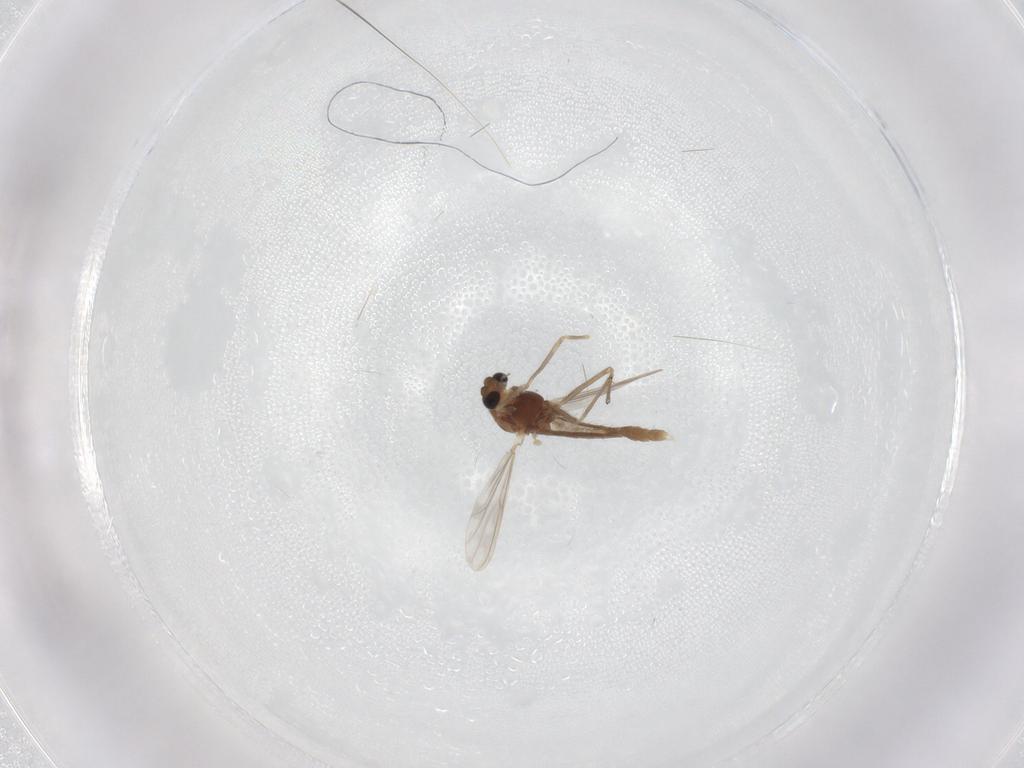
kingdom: Animalia
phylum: Arthropoda
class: Insecta
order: Diptera
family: Chironomidae
